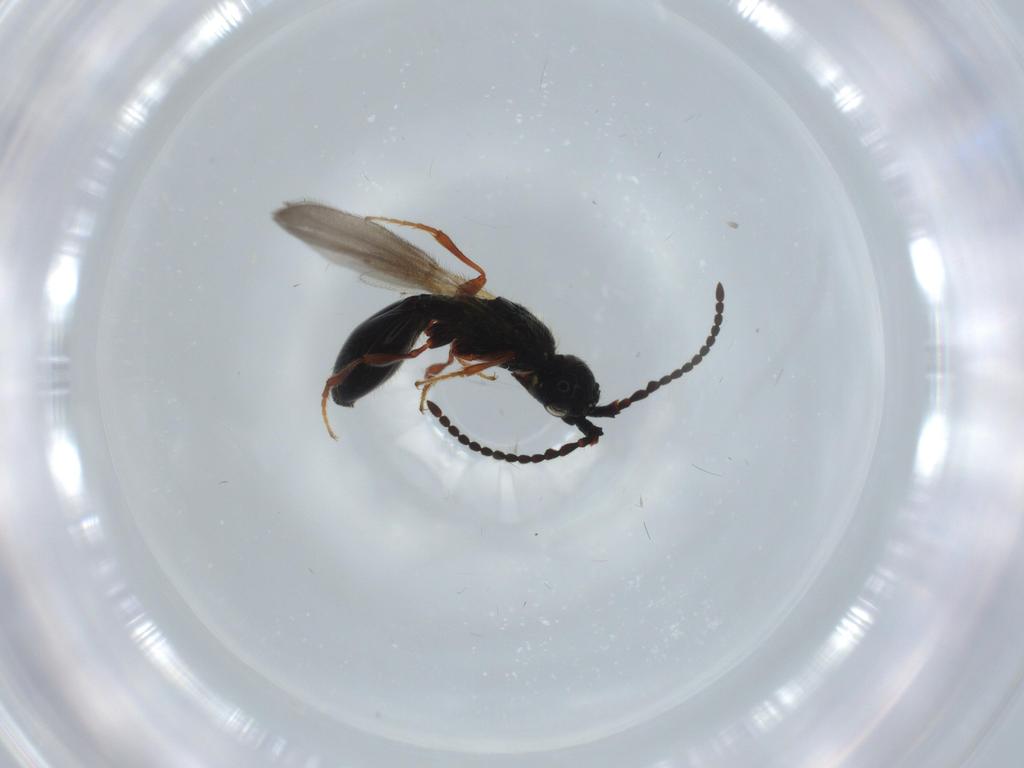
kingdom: Animalia
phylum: Arthropoda
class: Insecta
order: Hymenoptera
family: Diapriidae
